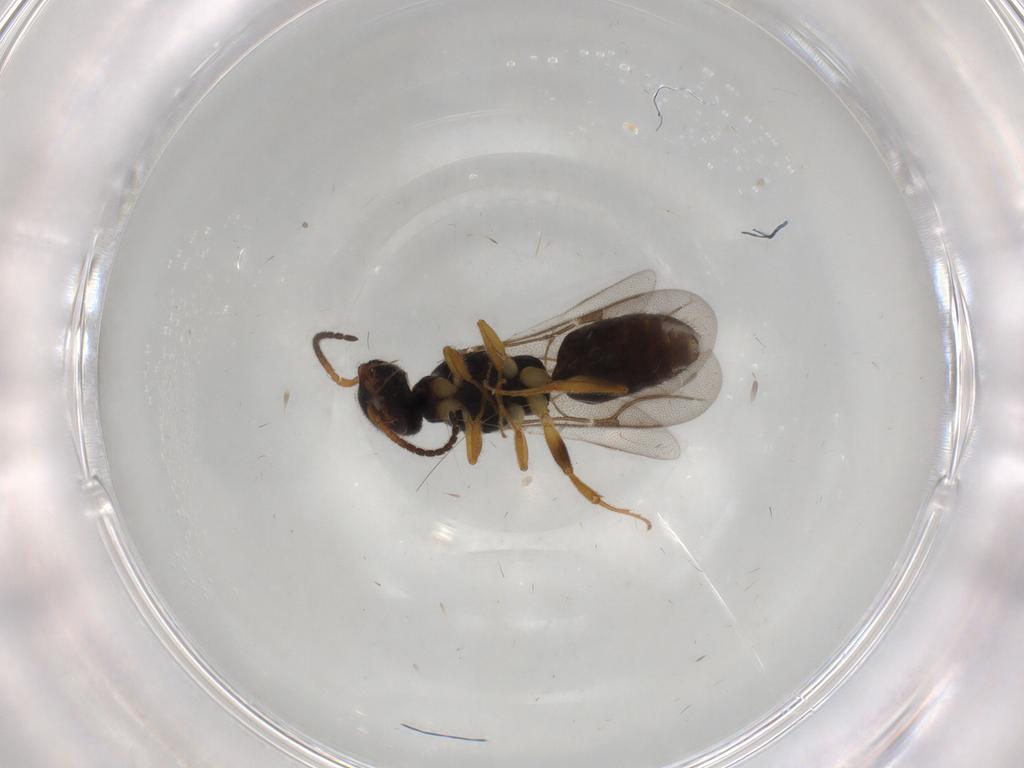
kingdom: Animalia
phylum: Arthropoda
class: Insecta
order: Hymenoptera
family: Bethylidae
